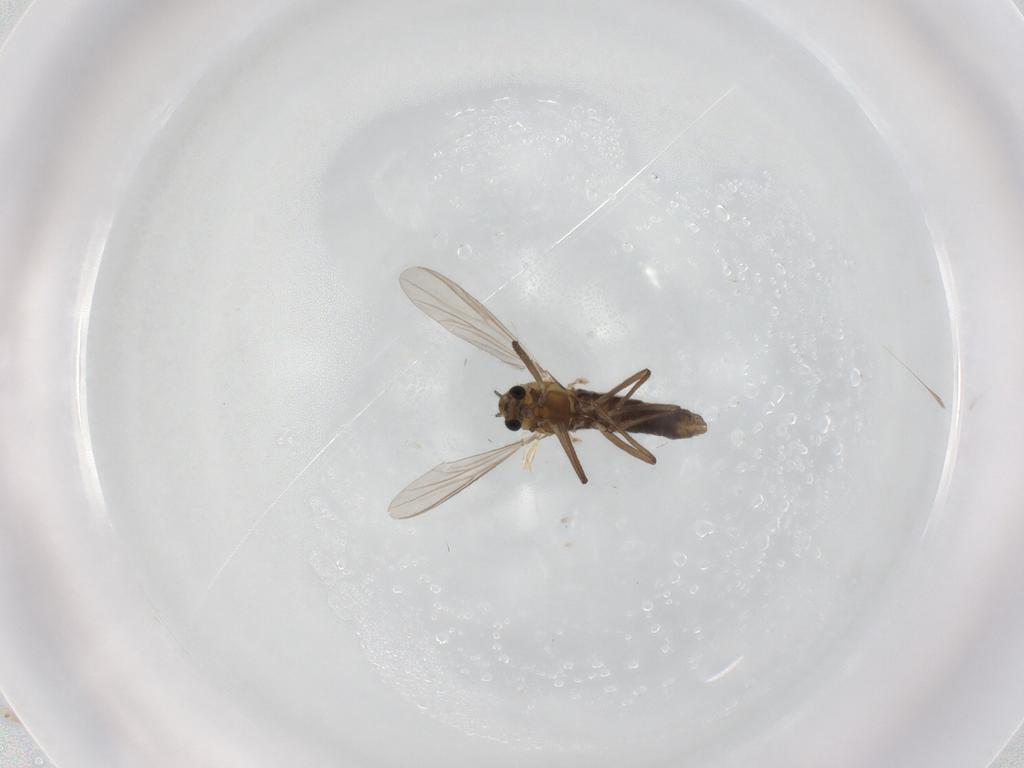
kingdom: Animalia
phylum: Arthropoda
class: Insecta
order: Diptera
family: Chironomidae
